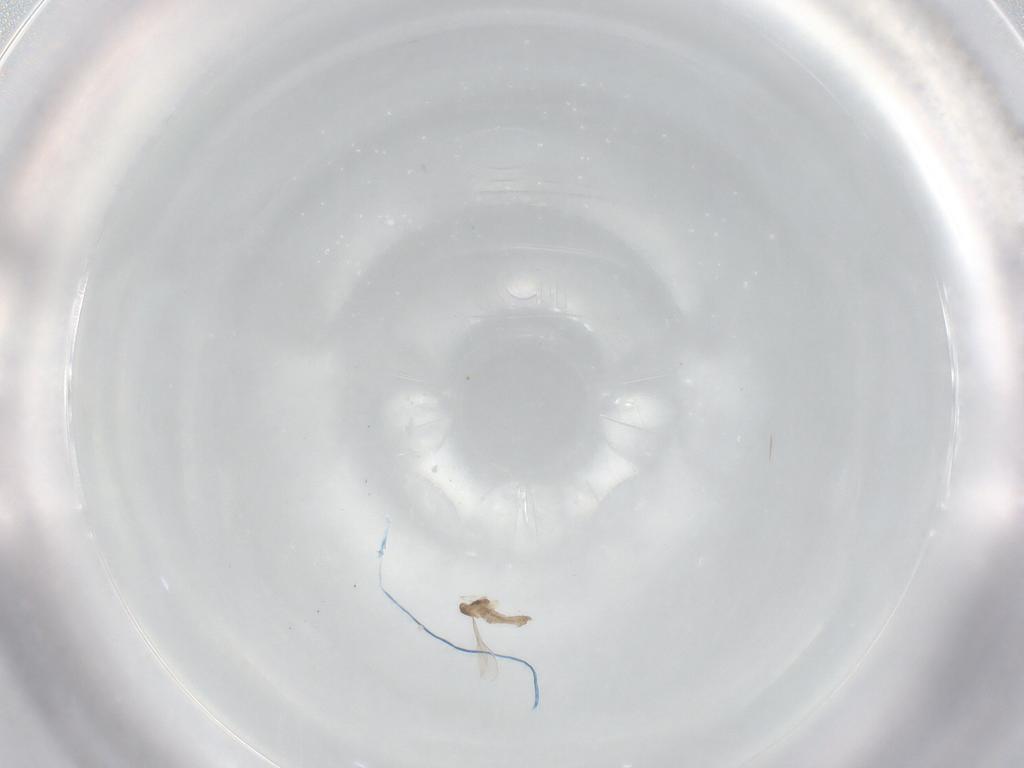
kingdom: Animalia
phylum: Arthropoda
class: Insecta
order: Diptera
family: Cecidomyiidae
